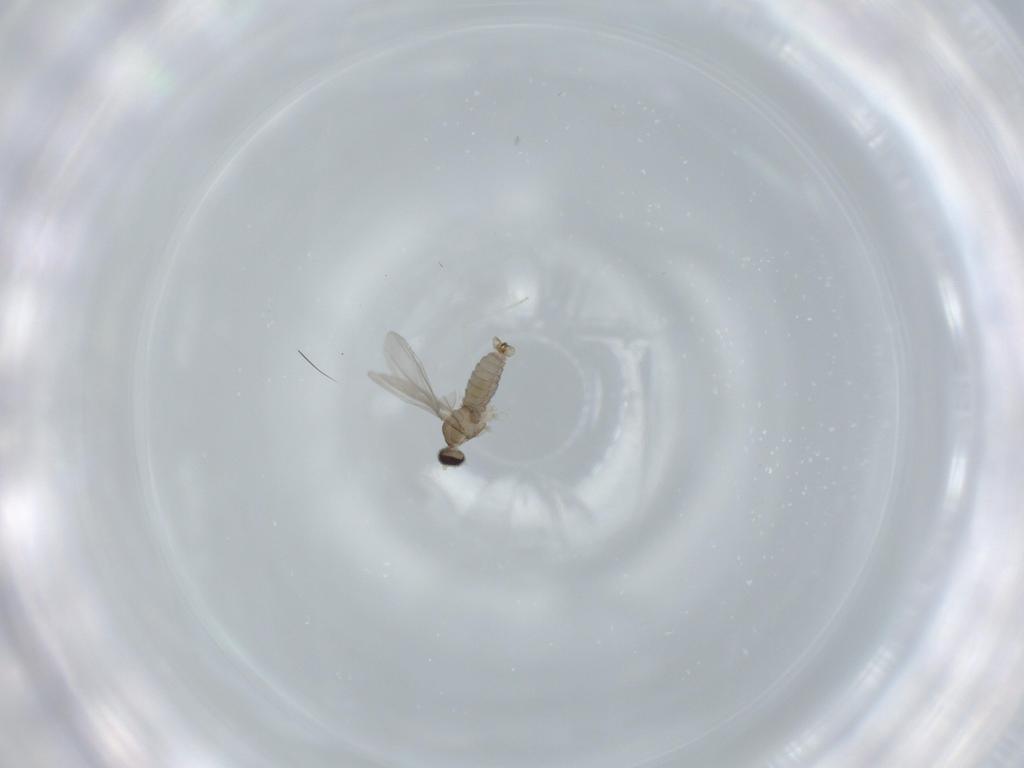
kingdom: Animalia
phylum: Arthropoda
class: Insecta
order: Diptera
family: Cecidomyiidae
